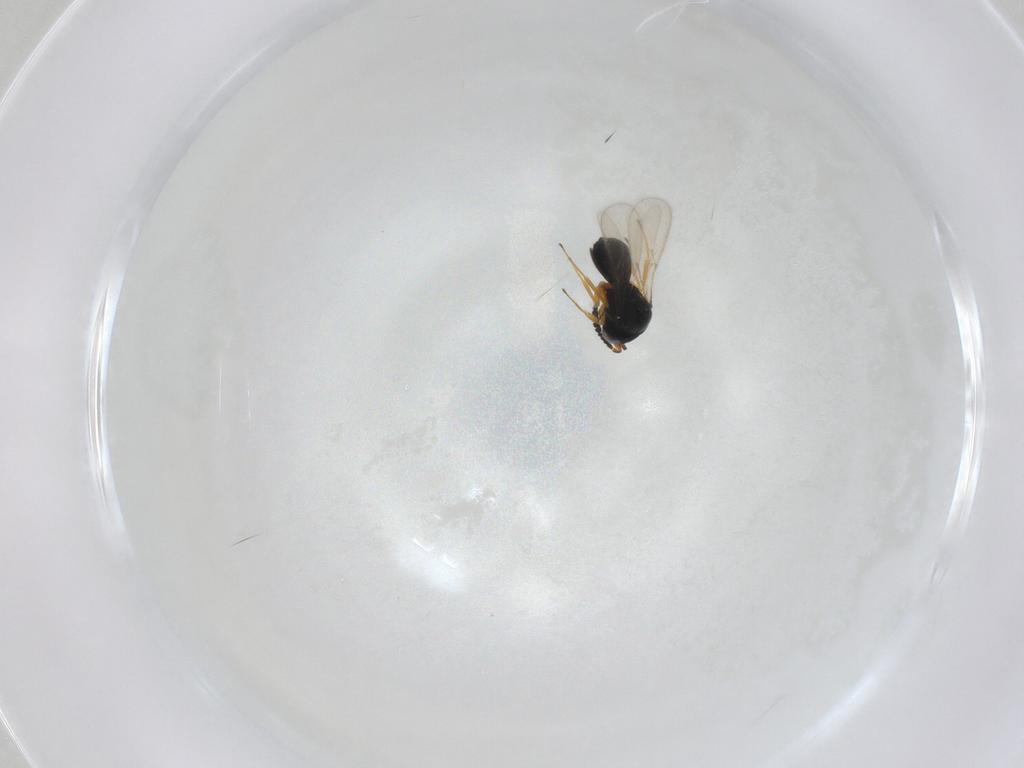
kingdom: Animalia
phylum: Arthropoda
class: Insecta
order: Hymenoptera
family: Scelionidae
